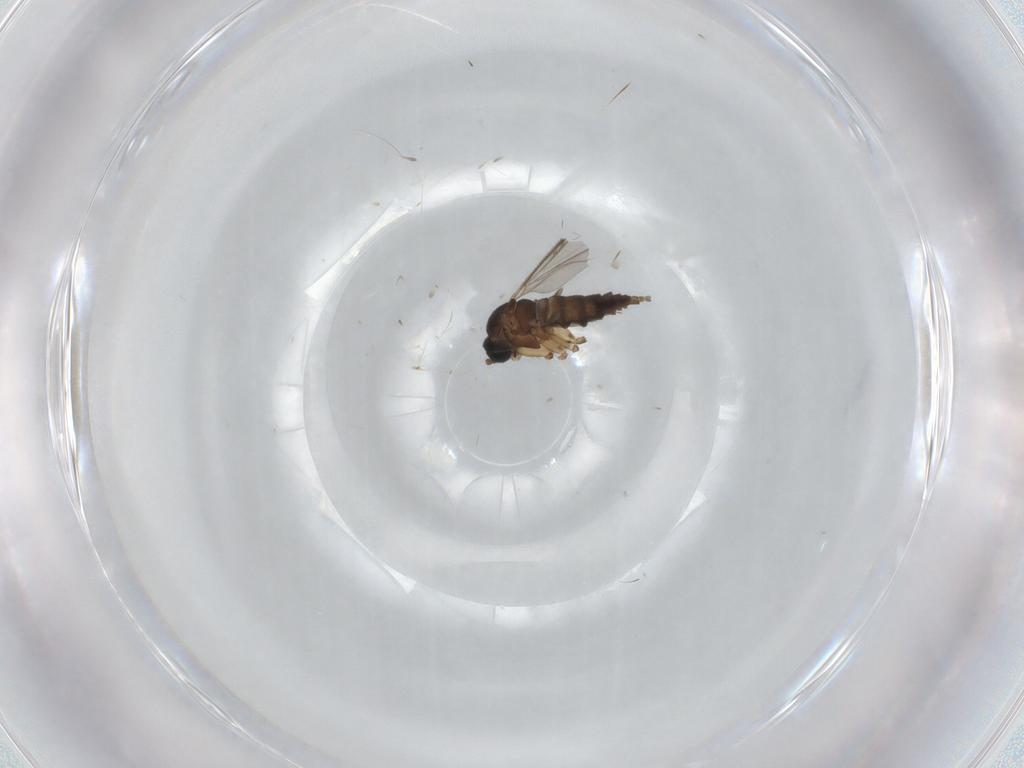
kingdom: Animalia
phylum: Arthropoda
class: Insecta
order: Diptera
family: Sciaridae
